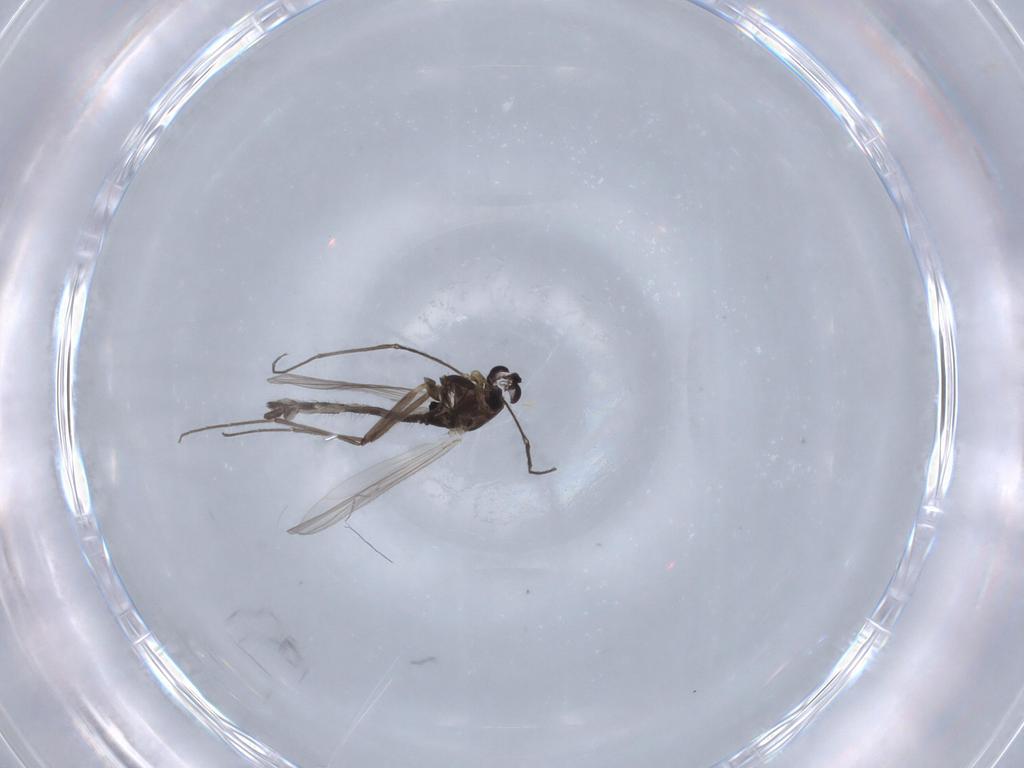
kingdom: Animalia
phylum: Arthropoda
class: Insecta
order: Diptera
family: Chironomidae
